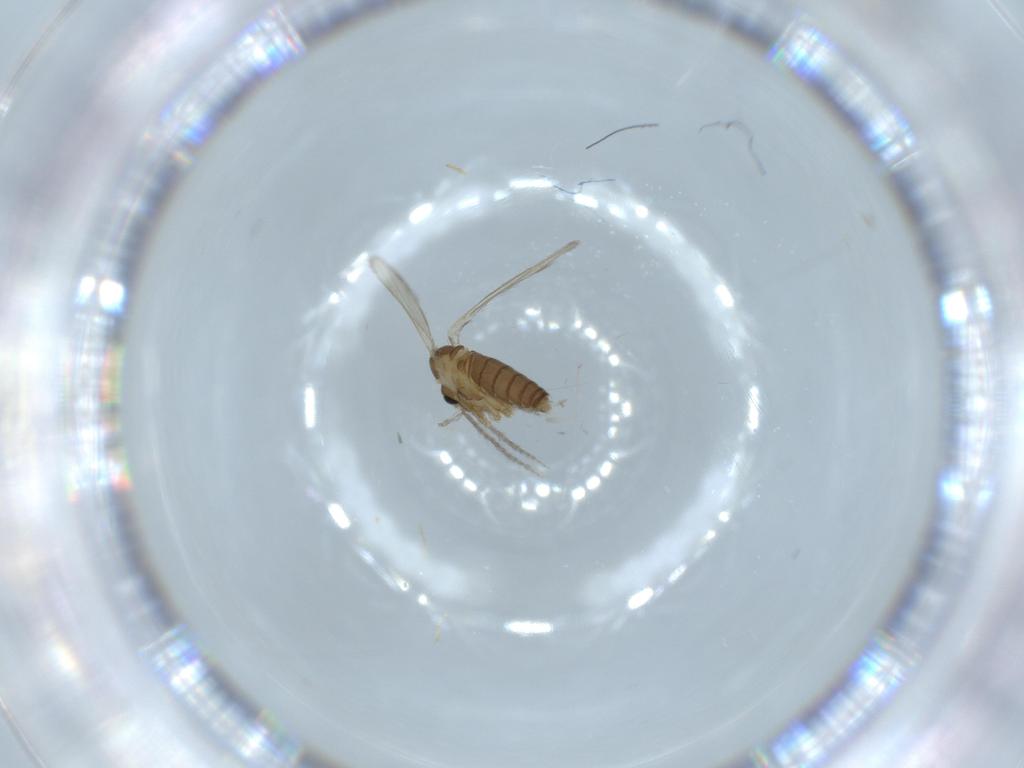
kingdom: Animalia
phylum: Arthropoda
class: Insecta
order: Diptera
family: Psychodidae
